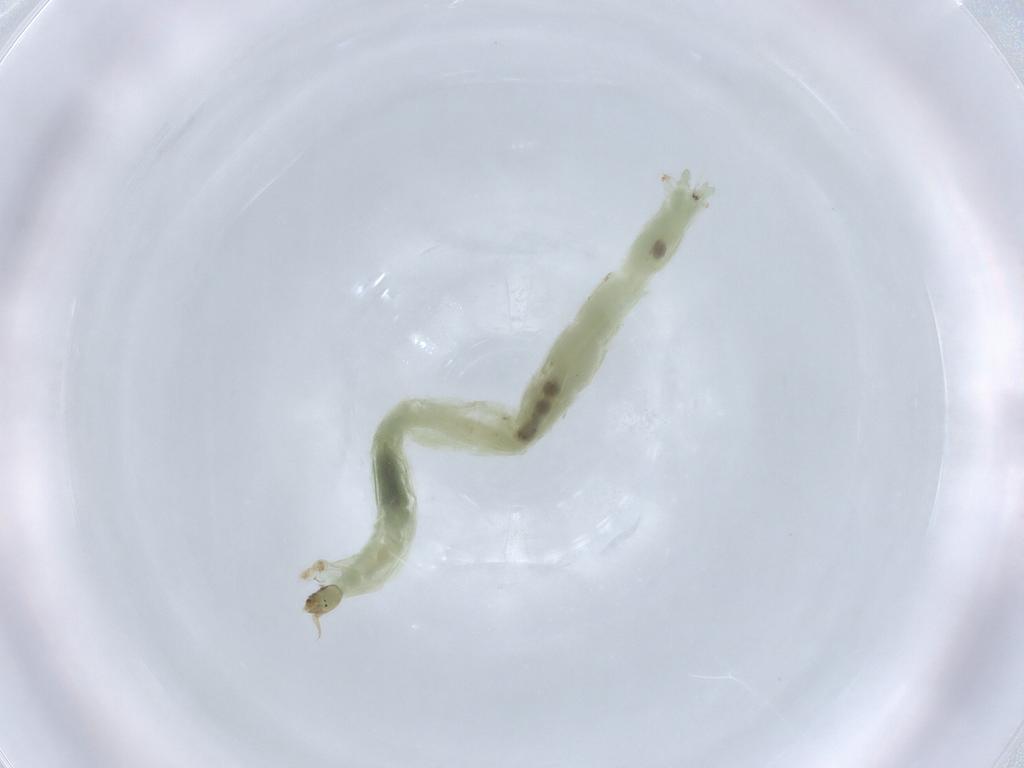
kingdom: Animalia
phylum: Arthropoda
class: Insecta
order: Diptera
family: Chironomidae
